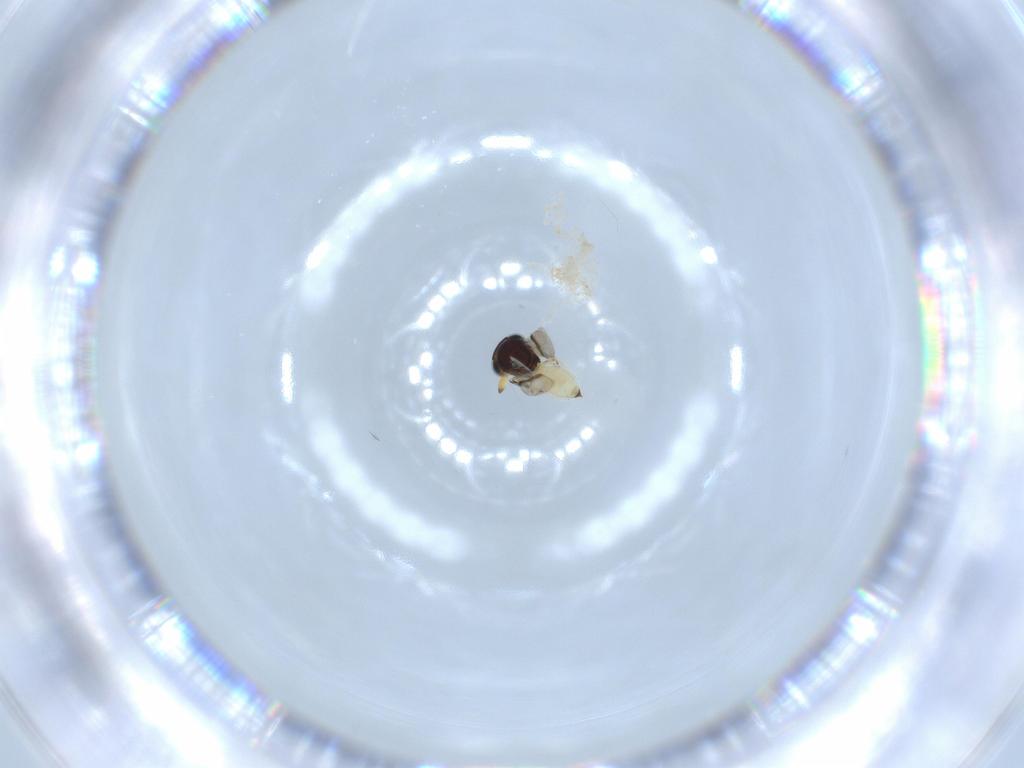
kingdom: Animalia
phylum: Arthropoda
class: Insecta
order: Hymenoptera
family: Scelionidae
